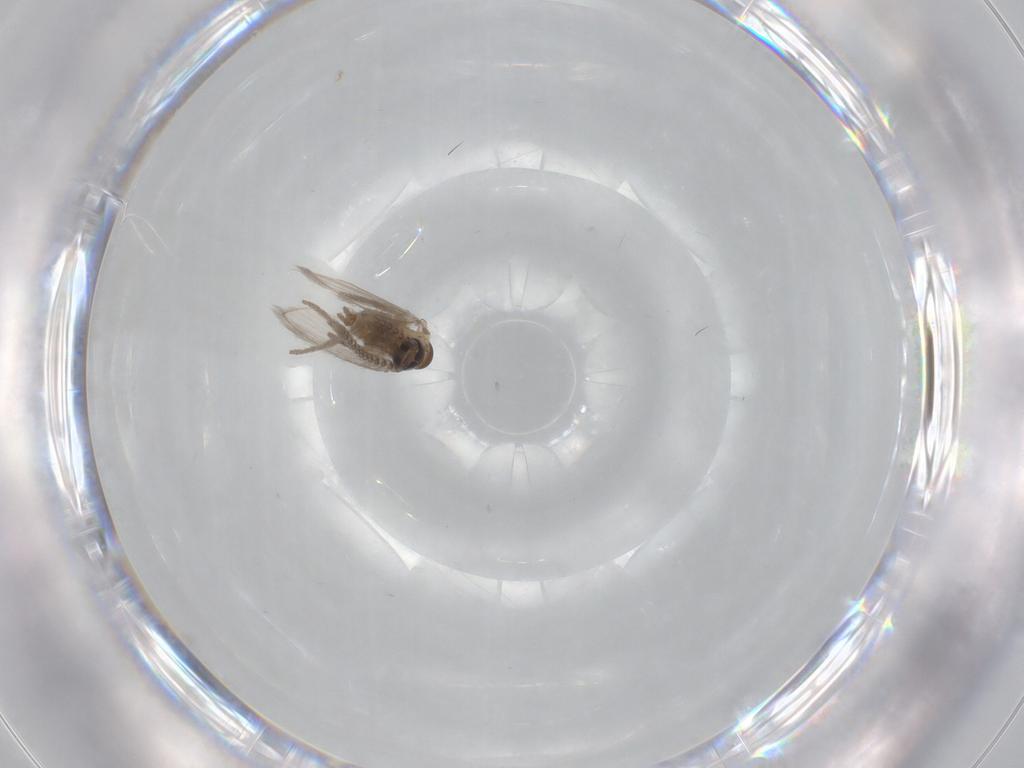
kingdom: Animalia
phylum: Arthropoda
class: Insecta
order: Diptera
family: Psychodidae
